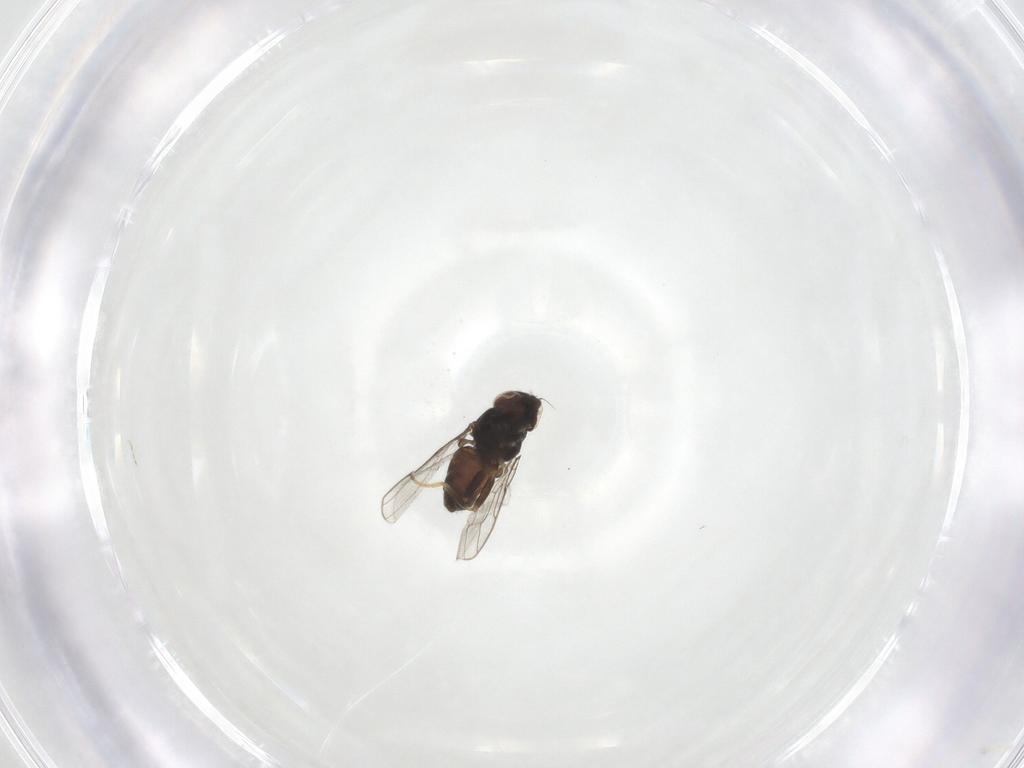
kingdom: Animalia
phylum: Arthropoda
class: Insecta
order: Diptera
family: Chloropidae
